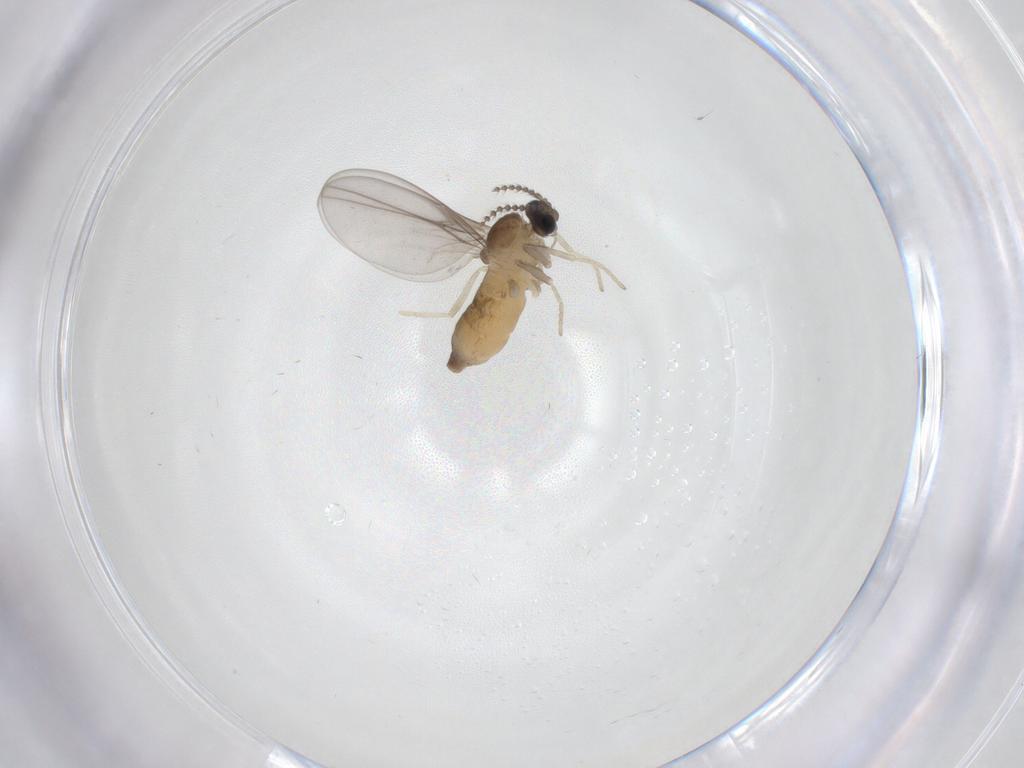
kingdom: Animalia
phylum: Arthropoda
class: Insecta
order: Diptera
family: Cecidomyiidae
